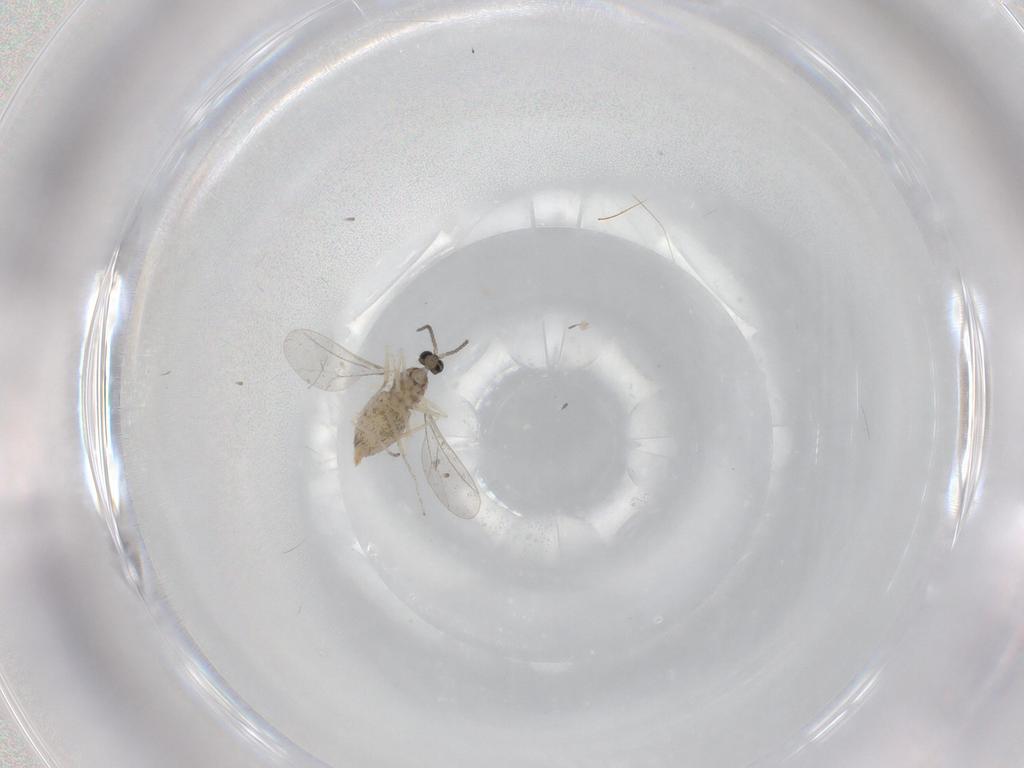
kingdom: Animalia
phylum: Arthropoda
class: Insecta
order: Diptera
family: Cecidomyiidae
